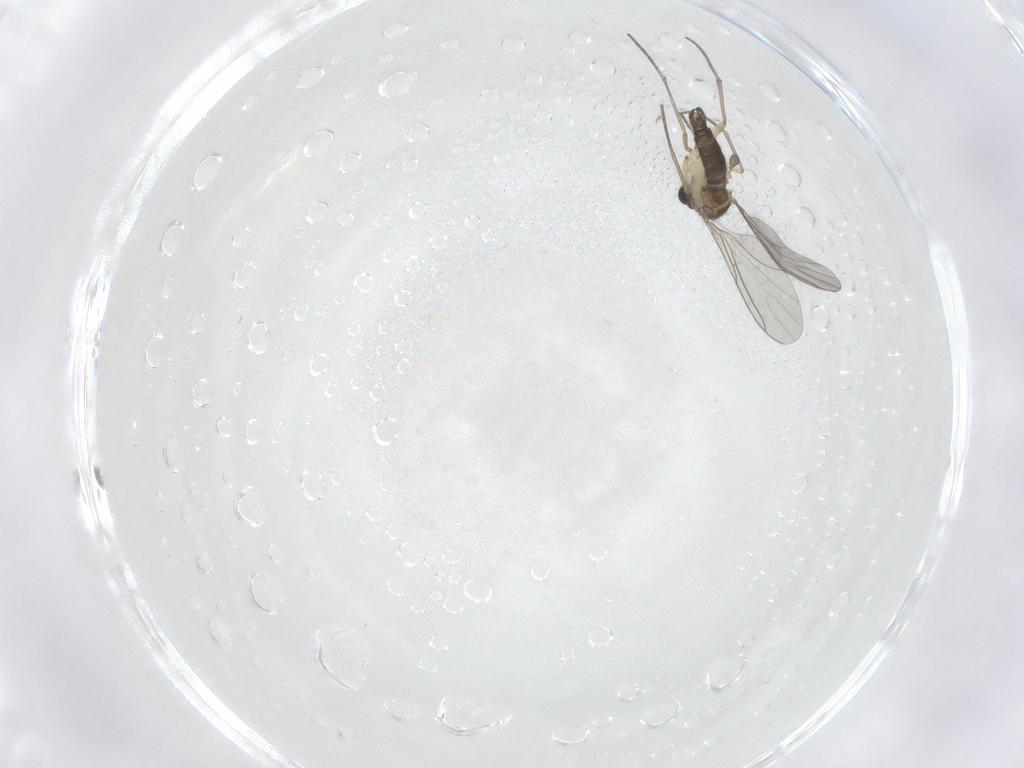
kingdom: Animalia
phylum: Arthropoda
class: Insecta
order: Diptera
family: Sciaridae
